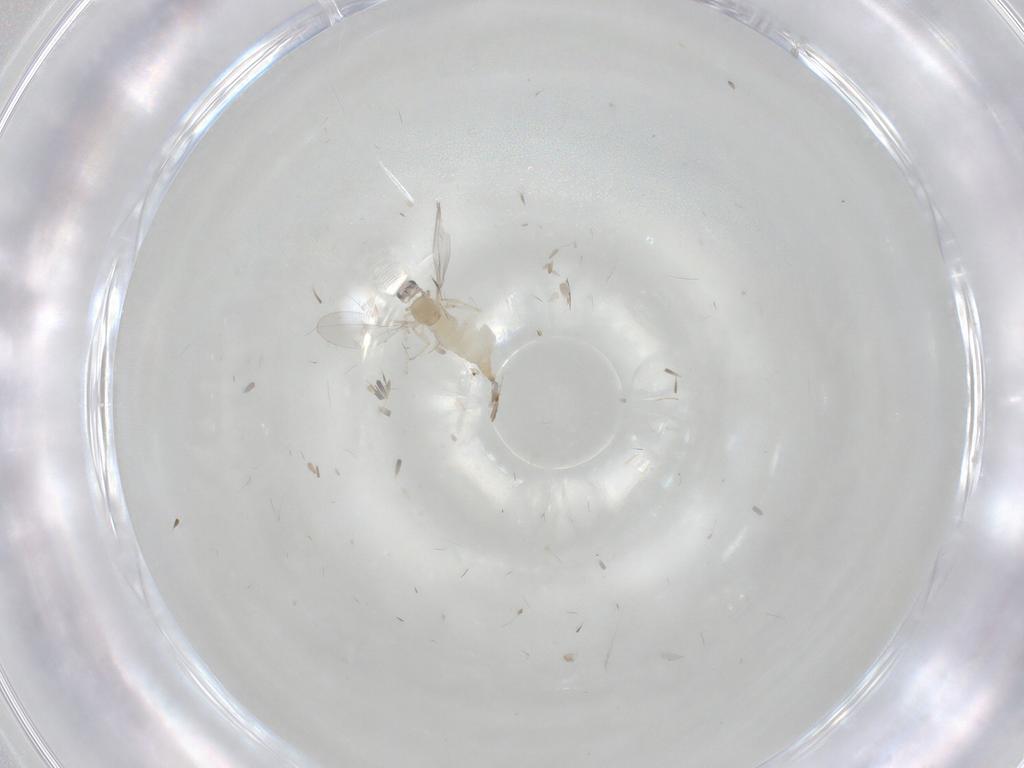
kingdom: Animalia
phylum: Arthropoda
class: Insecta
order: Diptera
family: Cecidomyiidae
